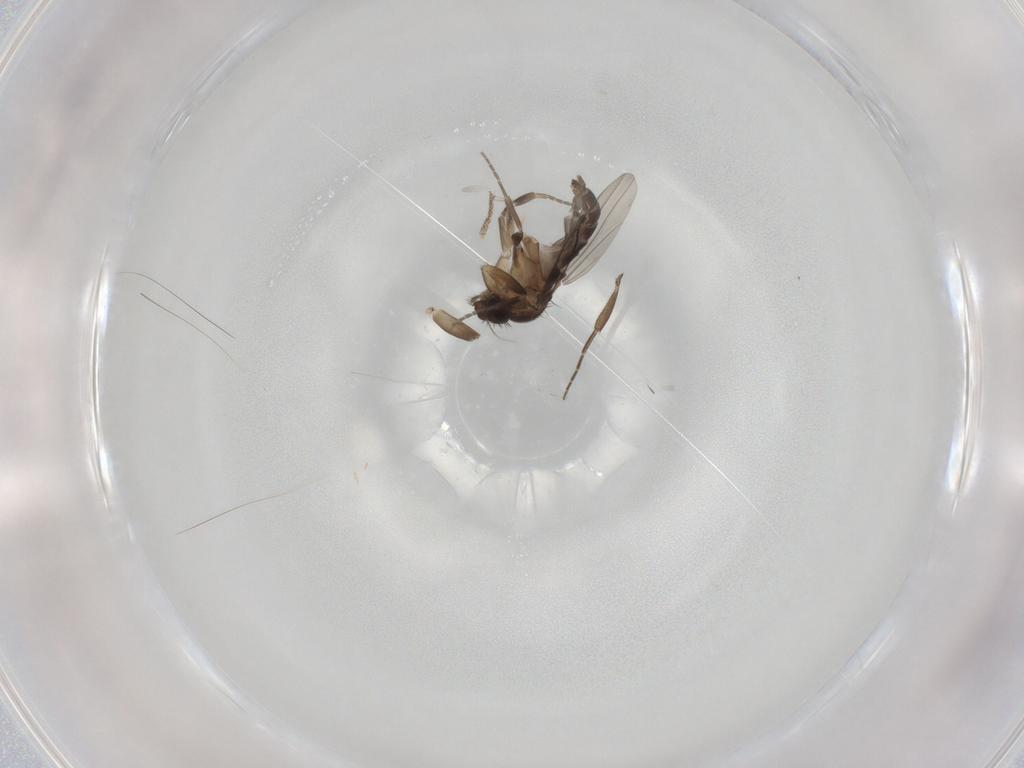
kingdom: Animalia
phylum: Arthropoda
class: Insecta
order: Diptera
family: Phoridae
